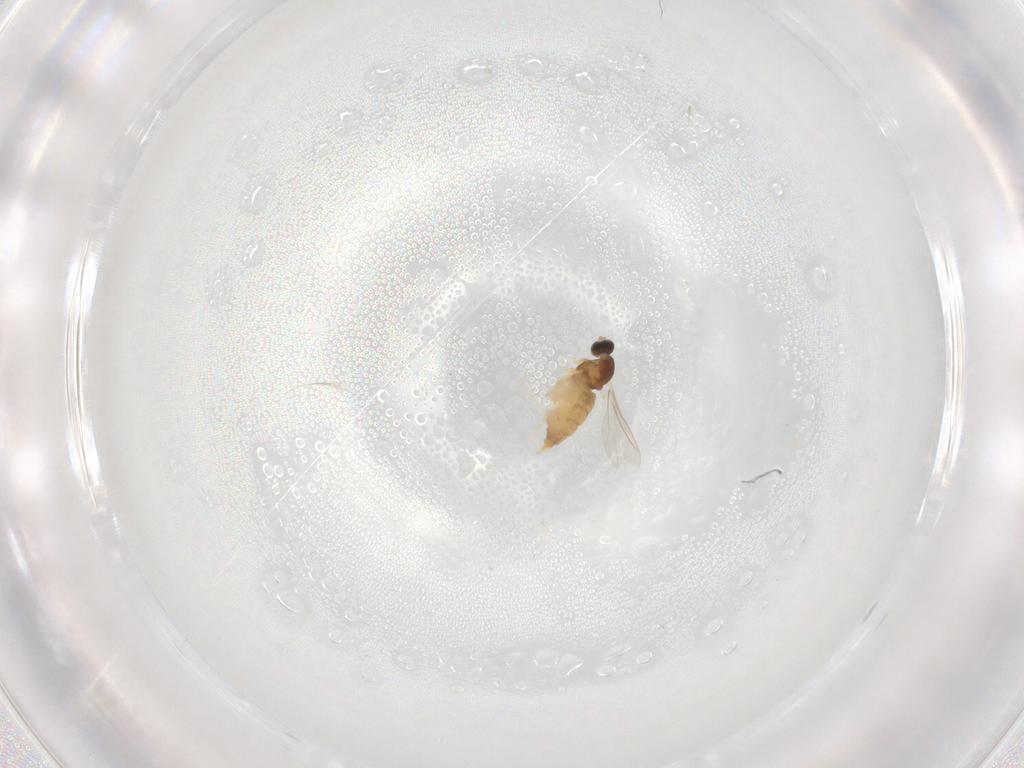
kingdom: Animalia
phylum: Arthropoda
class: Insecta
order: Diptera
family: Cecidomyiidae
